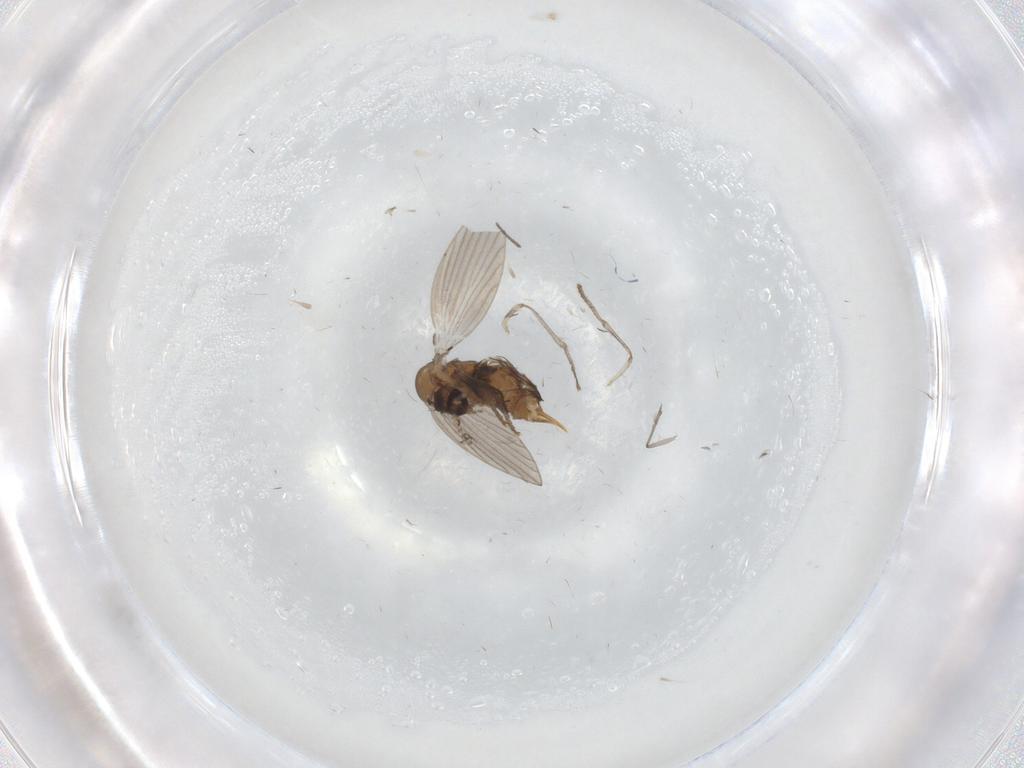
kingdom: Animalia
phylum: Arthropoda
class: Insecta
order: Diptera
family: Psychodidae
